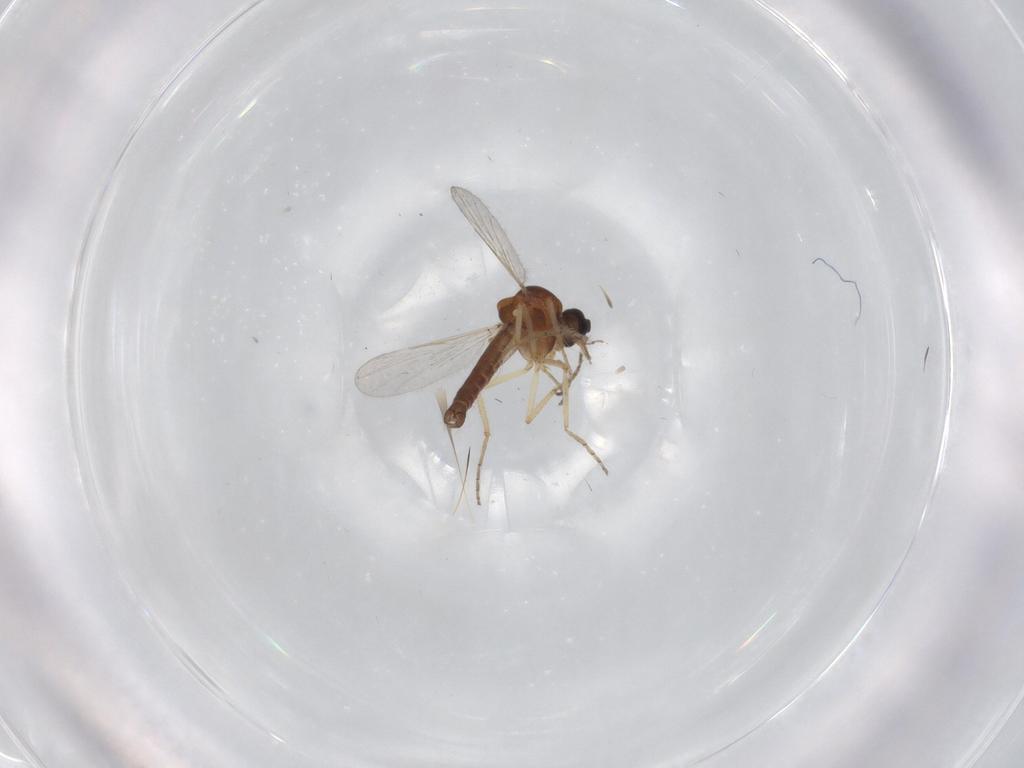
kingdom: Animalia
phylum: Arthropoda
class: Insecta
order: Diptera
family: Ceratopogonidae
